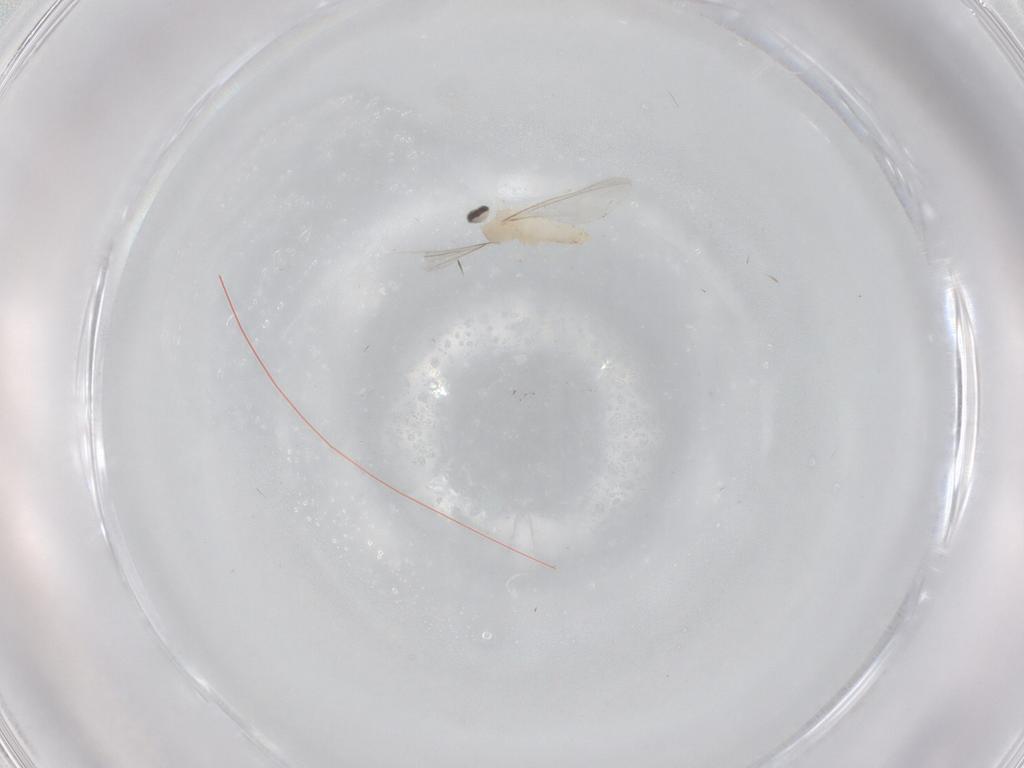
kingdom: Animalia
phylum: Arthropoda
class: Insecta
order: Diptera
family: Cecidomyiidae
